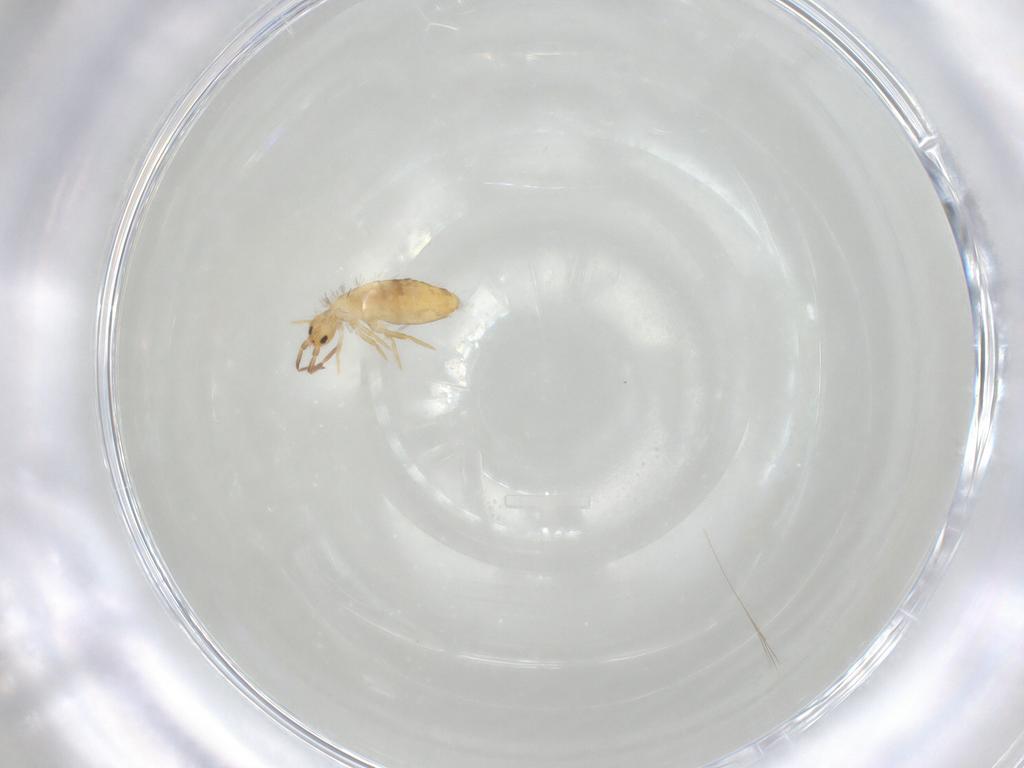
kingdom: Animalia
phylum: Arthropoda
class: Collembola
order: Entomobryomorpha
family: Entomobryidae
